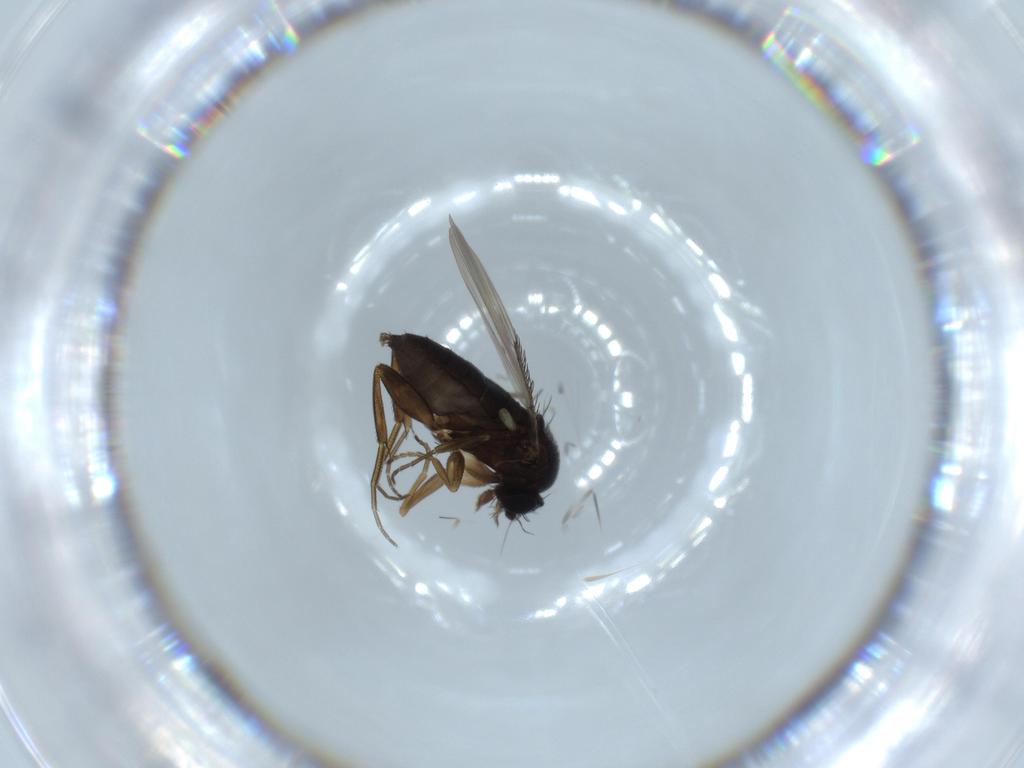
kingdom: Animalia
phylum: Arthropoda
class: Insecta
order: Diptera
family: Phoridae
